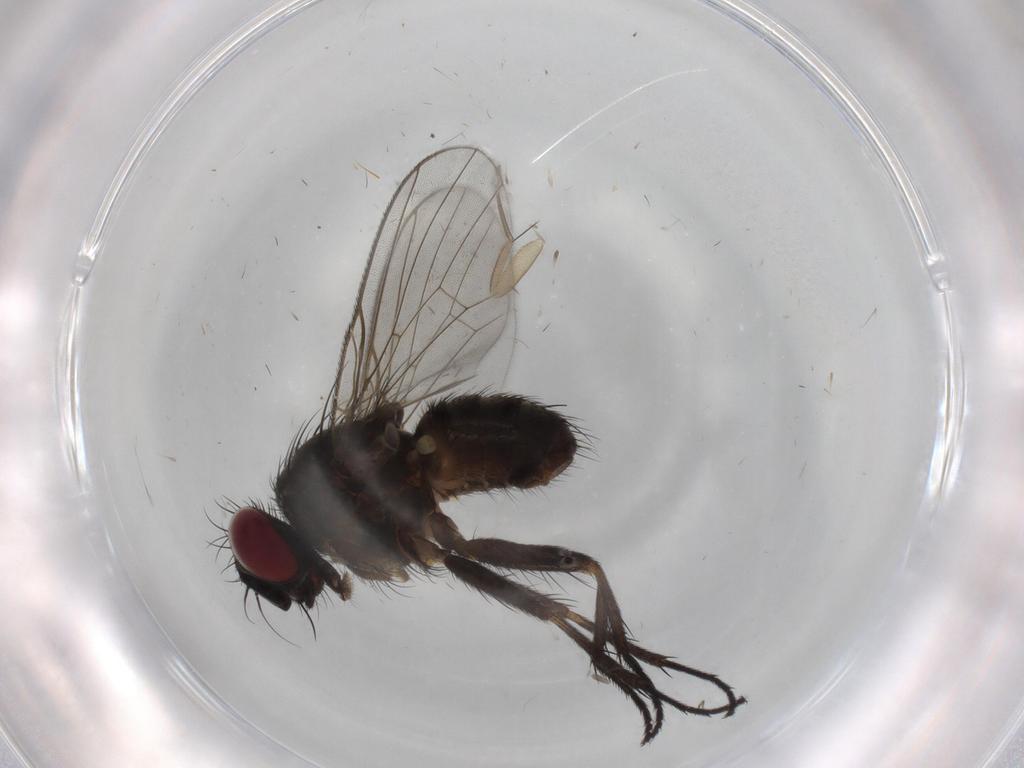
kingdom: Animalia
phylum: Arthropoda
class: Insecta
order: Diptera
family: Muscidae
